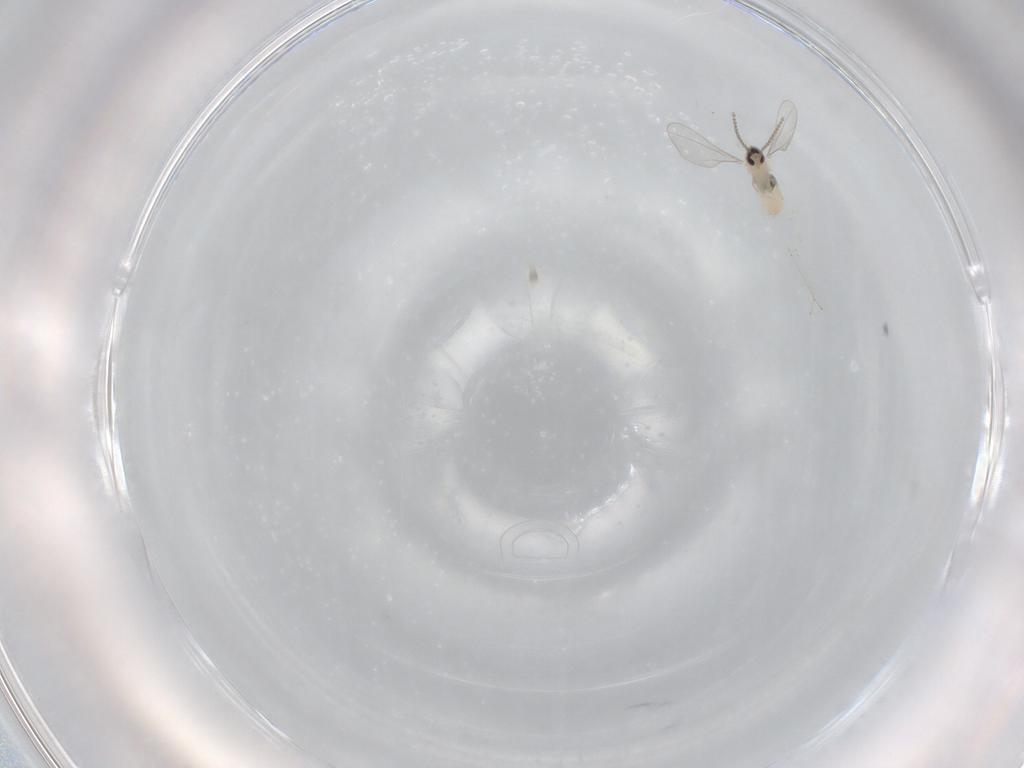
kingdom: Animalia
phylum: Arthropoda
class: Insecta
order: Diptera
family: Cecidomyiidae
